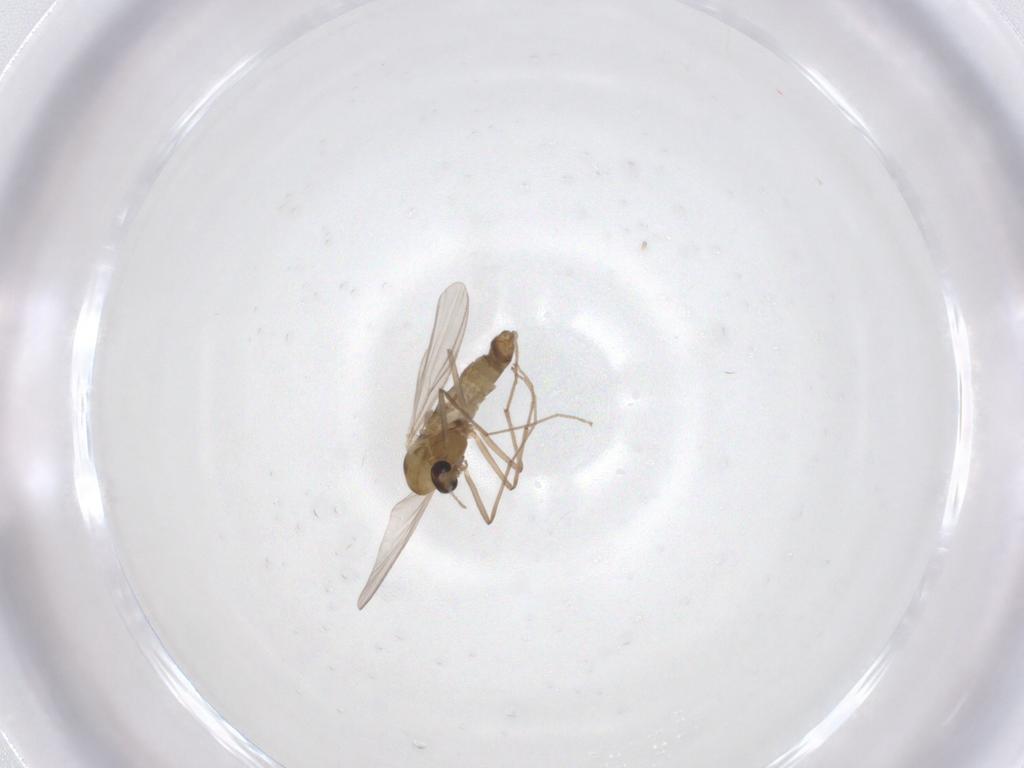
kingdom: Animalia
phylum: Arthropoda
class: Insecta
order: Diptera
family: Chironomidae
